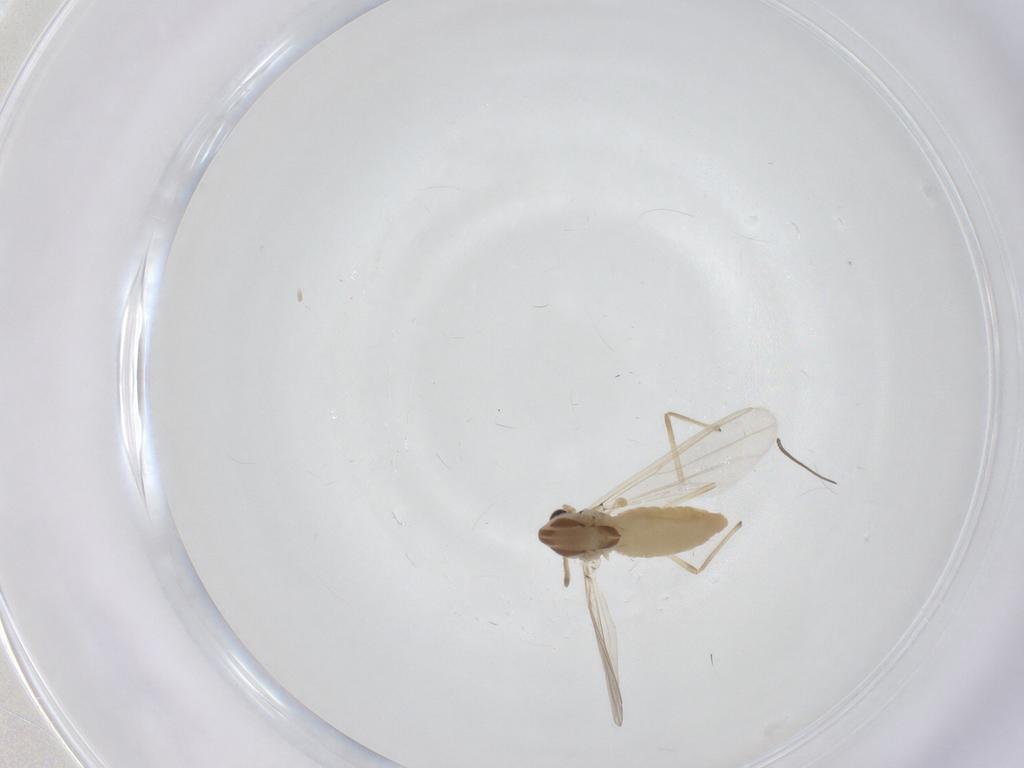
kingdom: Animalia
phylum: Arthropoda
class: Insecta
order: Diptera
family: Chironomidae
